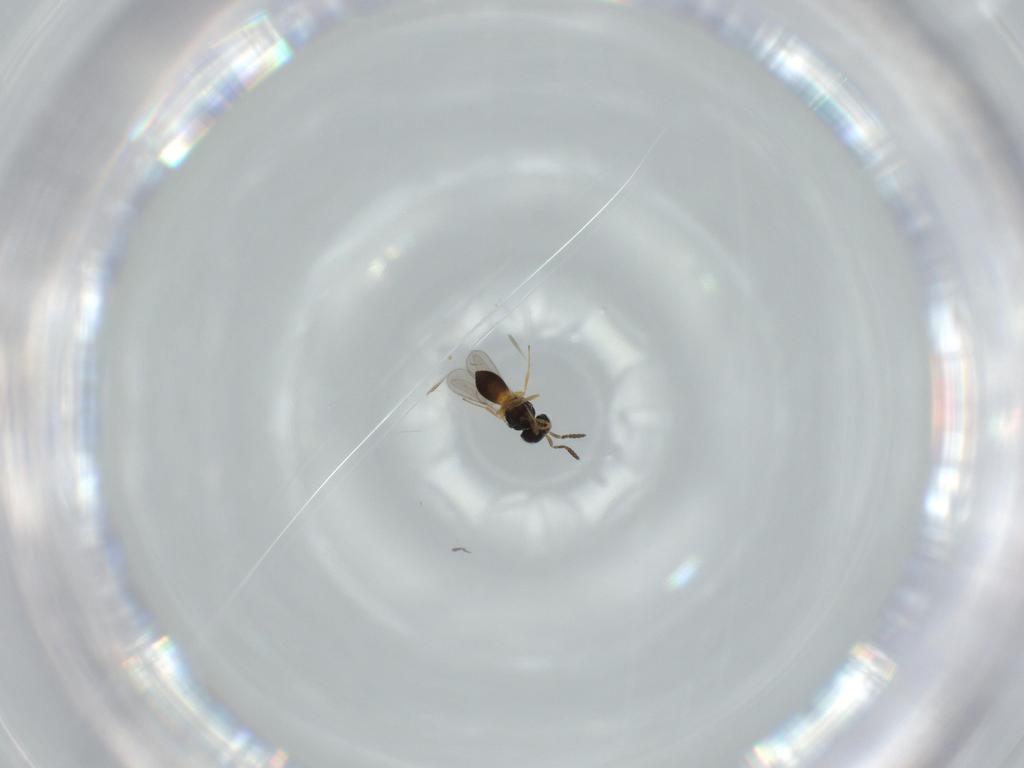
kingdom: Animalia
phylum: Arthropoda
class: Insecta
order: Hymenoptera
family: Scelionidae
